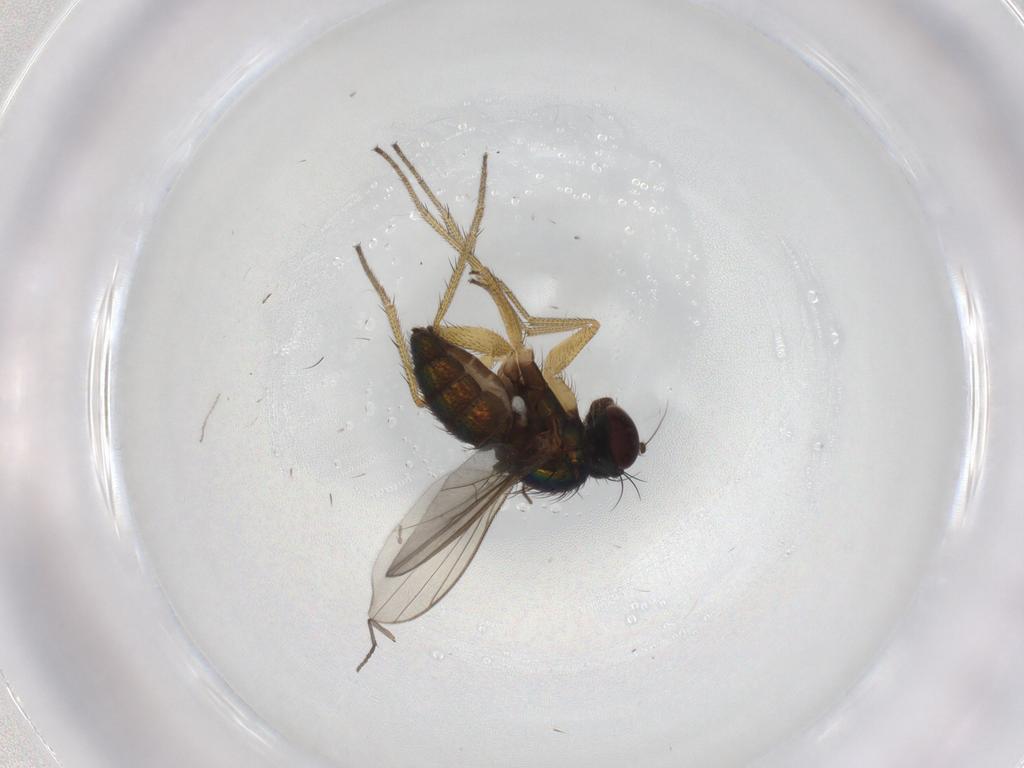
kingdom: Animalia
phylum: Arthropoda
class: Insecta
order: Diptera
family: Sciaridae
